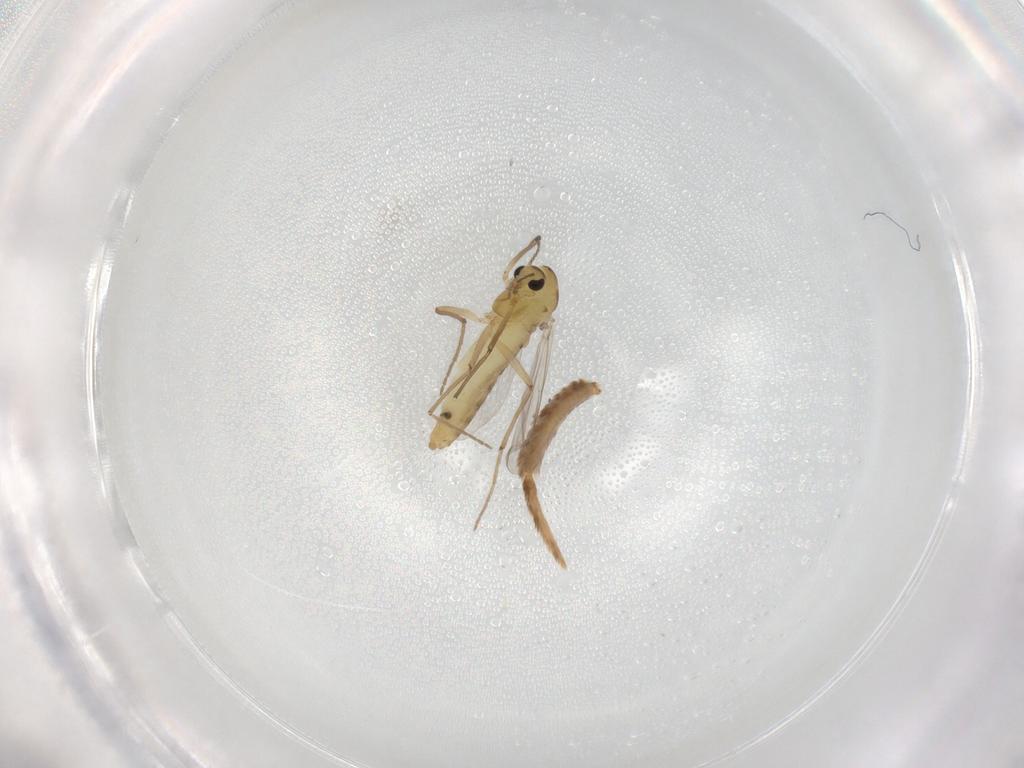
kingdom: Animalia
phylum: Arthropoda
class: Insecta
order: Diptera
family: Chironomidae
